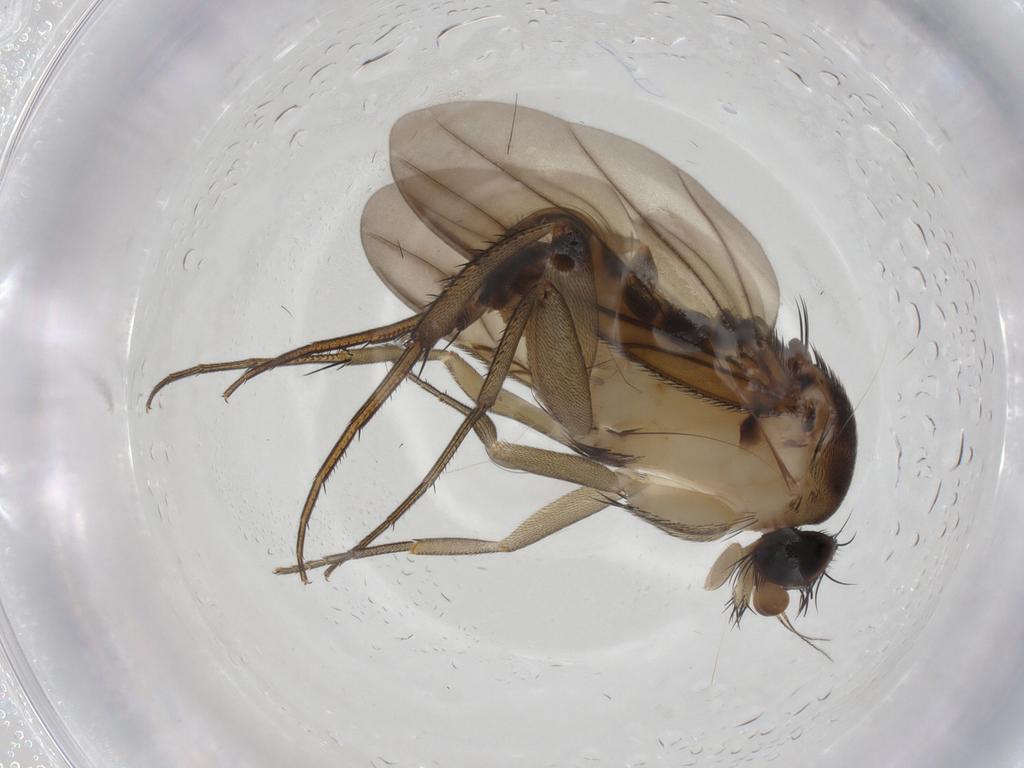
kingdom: Animalia
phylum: Arthropoda
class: Insecta
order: Diptera
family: Phoridae
